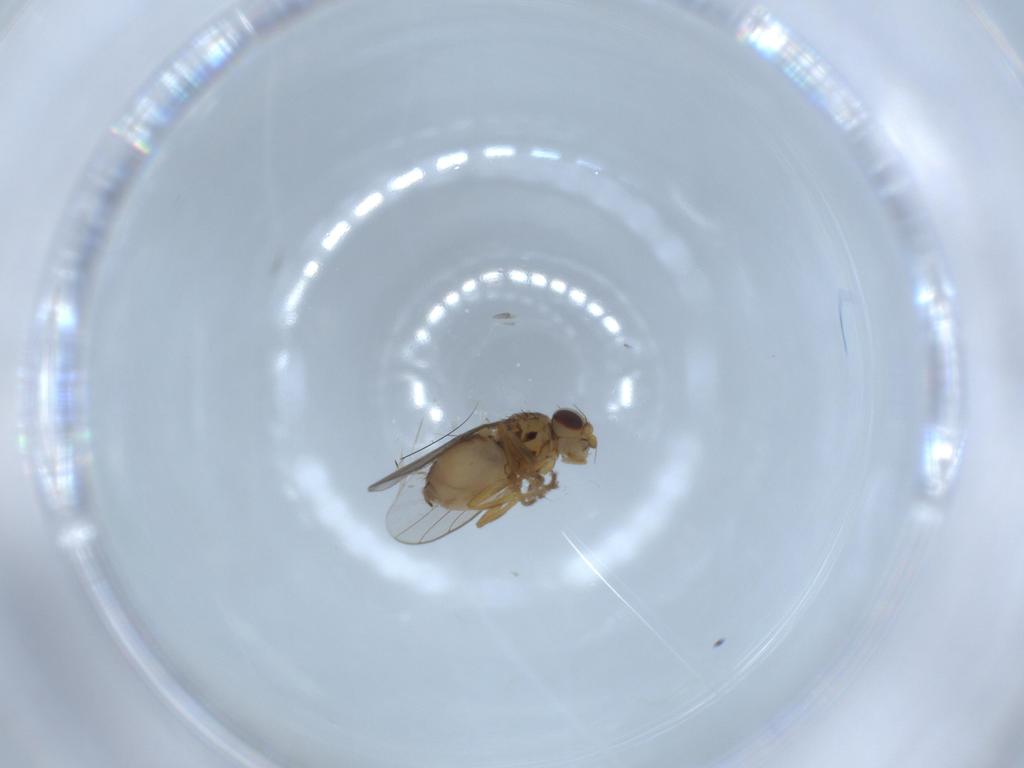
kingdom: Animalia
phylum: Arthropoda
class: Insecta
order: Diptera
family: Chloropidae
